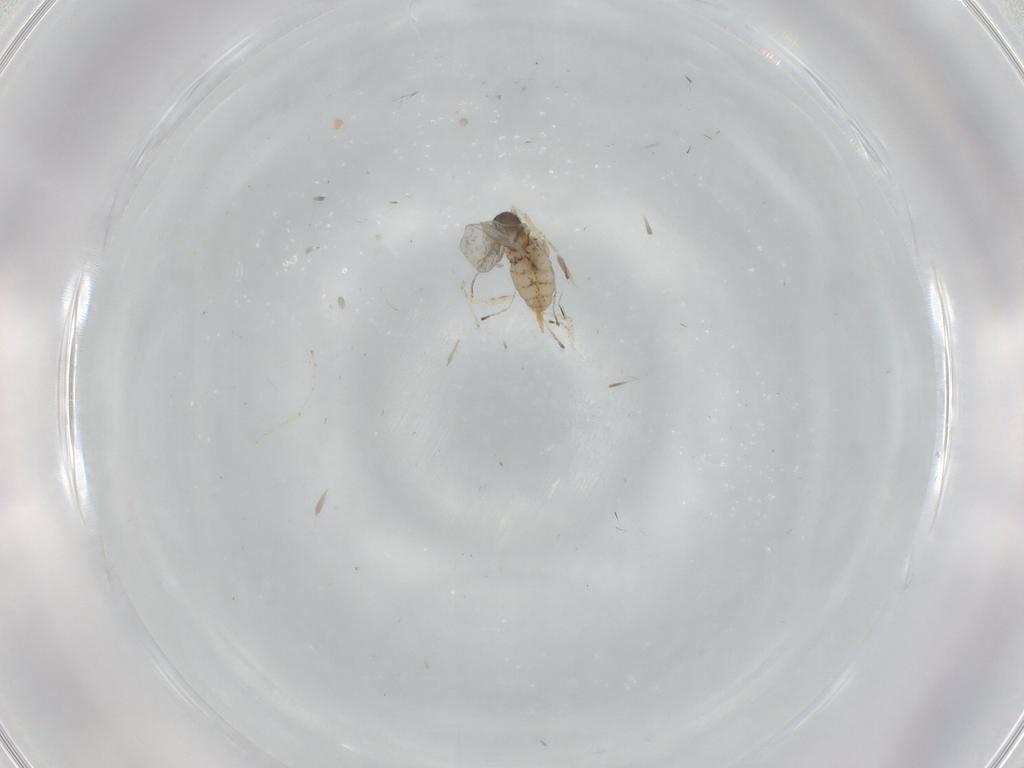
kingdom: Animalia
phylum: Arthropoda
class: Insecta
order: Diptera
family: Cecidomyiidae
